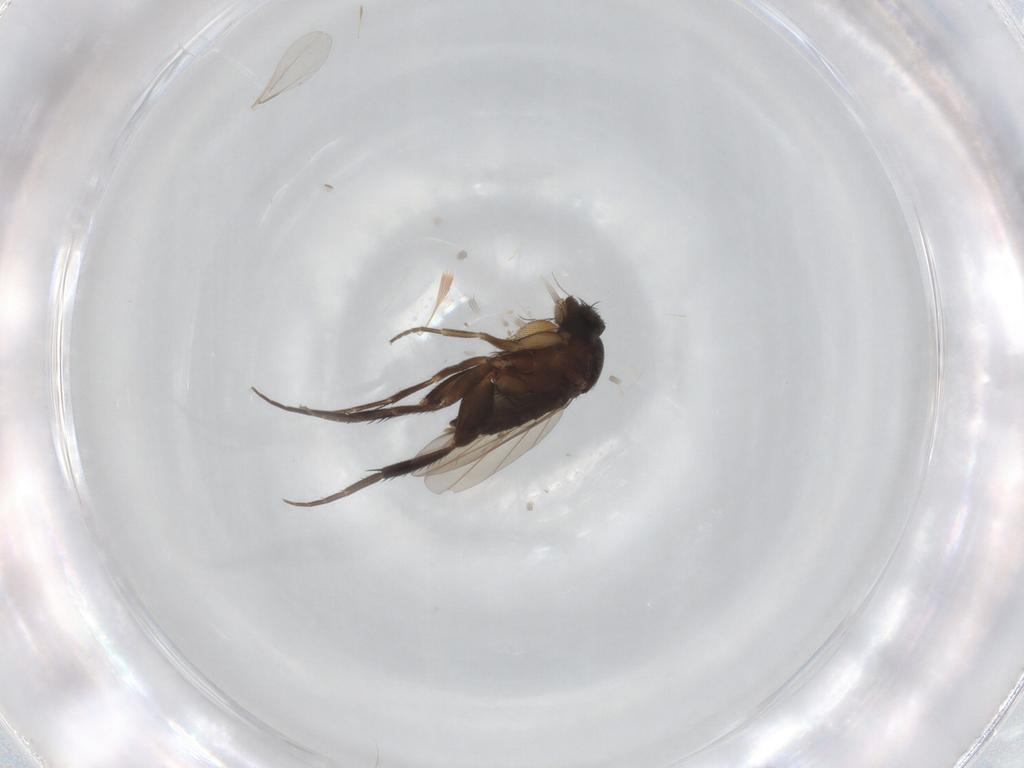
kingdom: Animalia
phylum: Arthropoda
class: Insecta
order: Diptera
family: Phoridae
